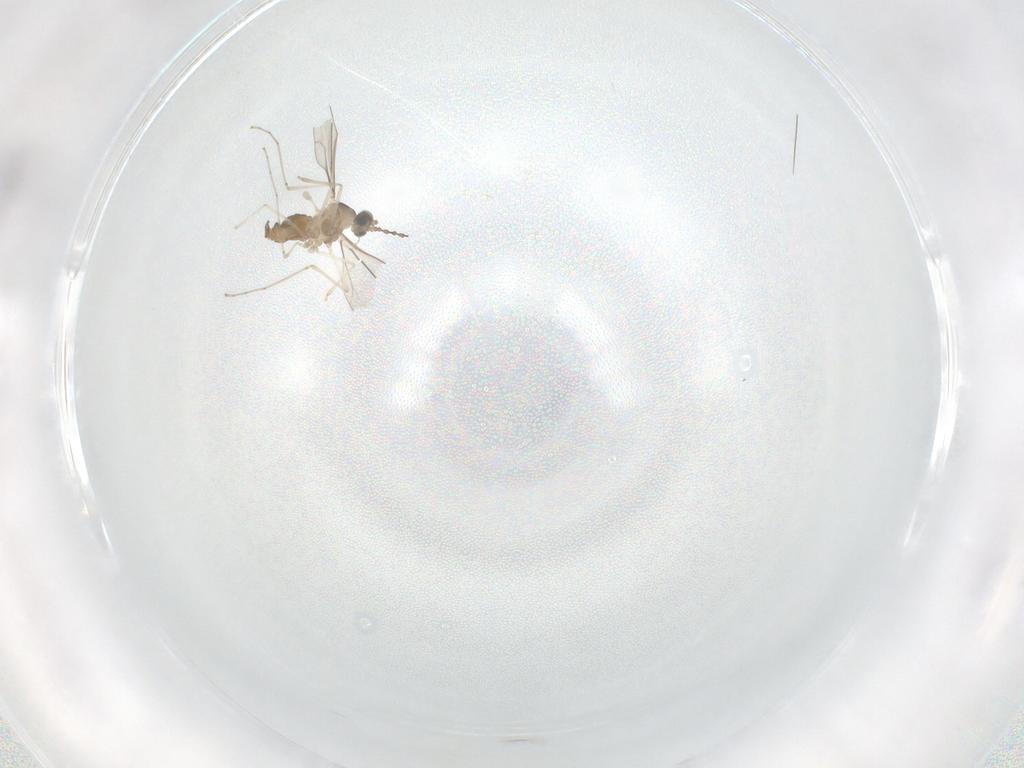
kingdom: Animalia
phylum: Arthropoda
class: Insecta
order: Diptera
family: Cecidomyiidae
